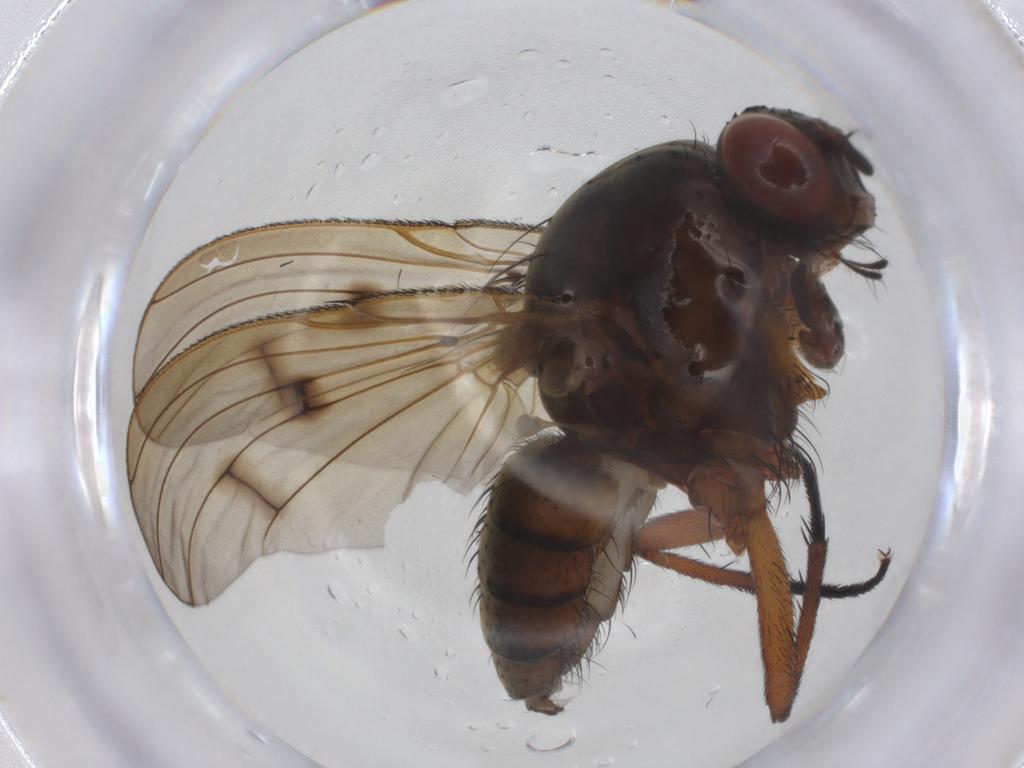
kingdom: Animalia
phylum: Arthropoda
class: Insecta
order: Diptera
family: Anthomyiidae
